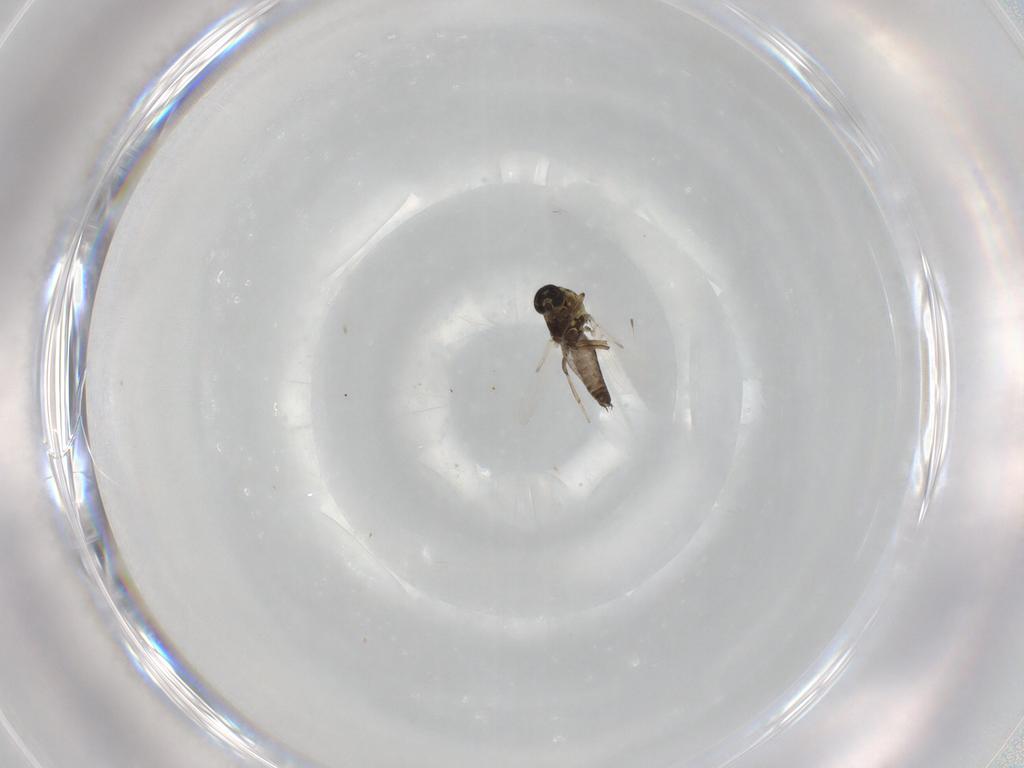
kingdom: Animalia
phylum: Arthropoda
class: Insecta
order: Diptera
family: Chloropidae
